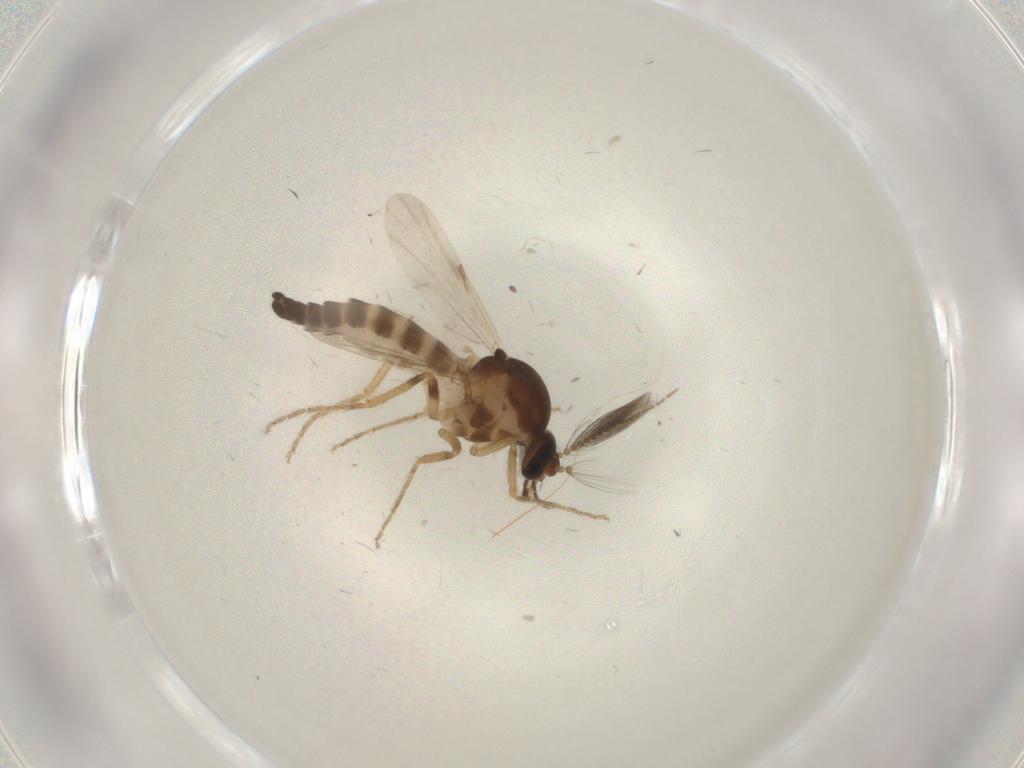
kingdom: Animalia
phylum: Arthropoda
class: Insecta
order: Diptera
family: Ceratopogonidae
